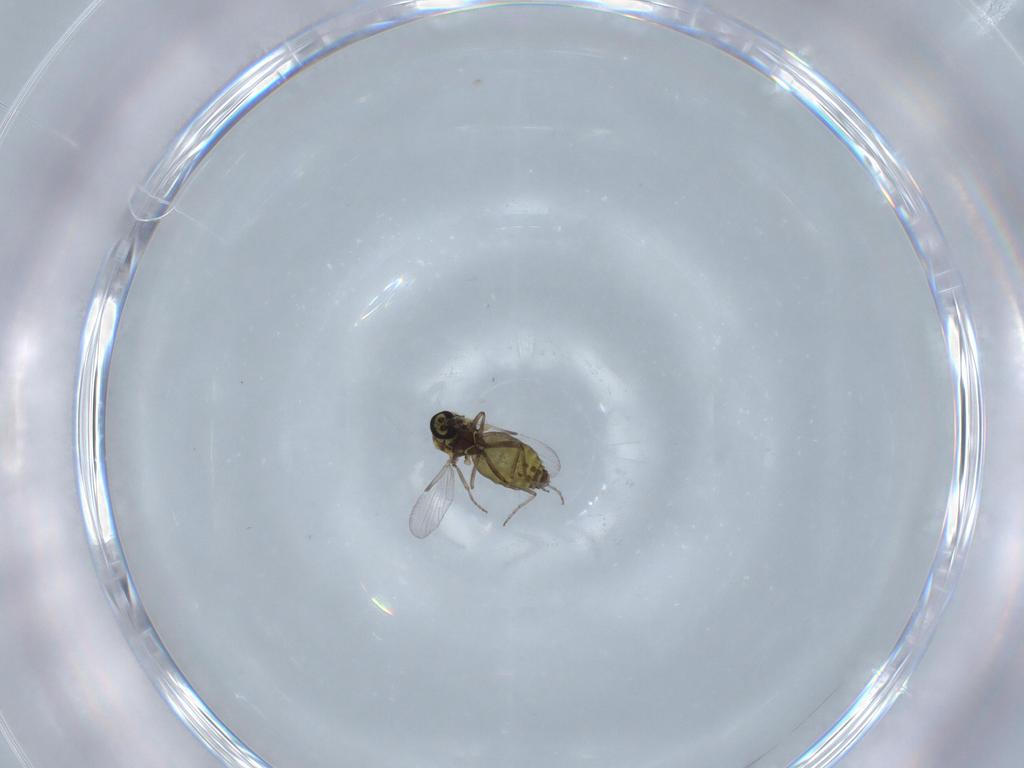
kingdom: Animalia
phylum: Arthropoda
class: Insecta
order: Diptera
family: Ceratopogonidae
